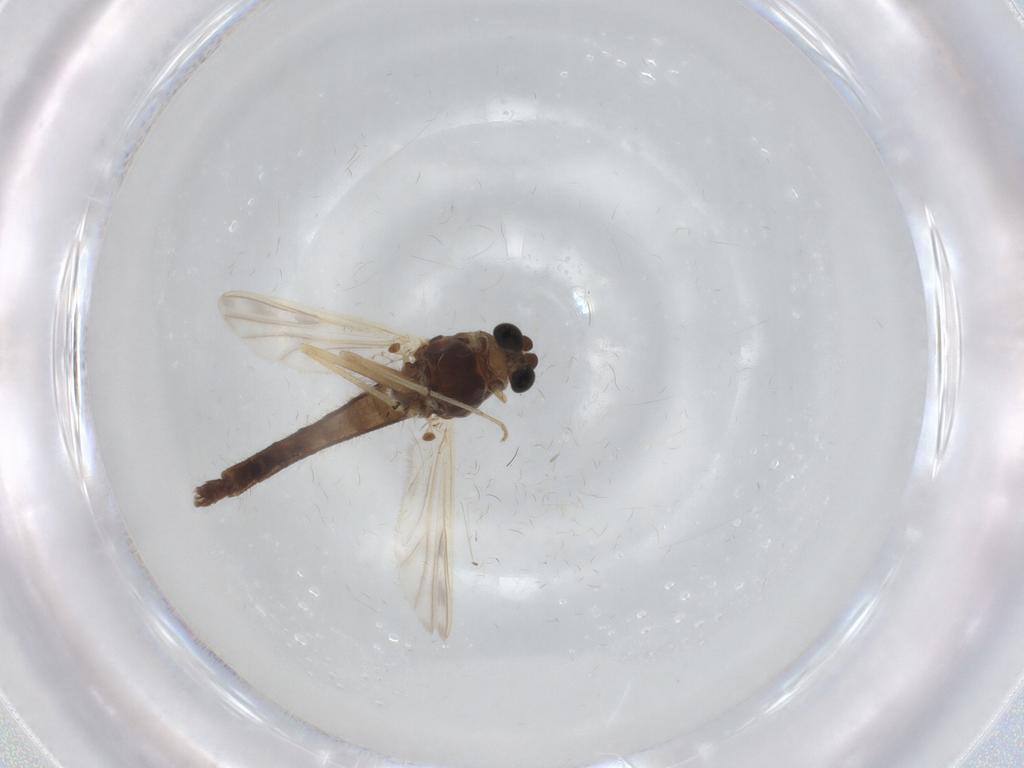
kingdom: Animalia
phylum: Arthropoda
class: Insecta
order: Diptera
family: Chironomidae
